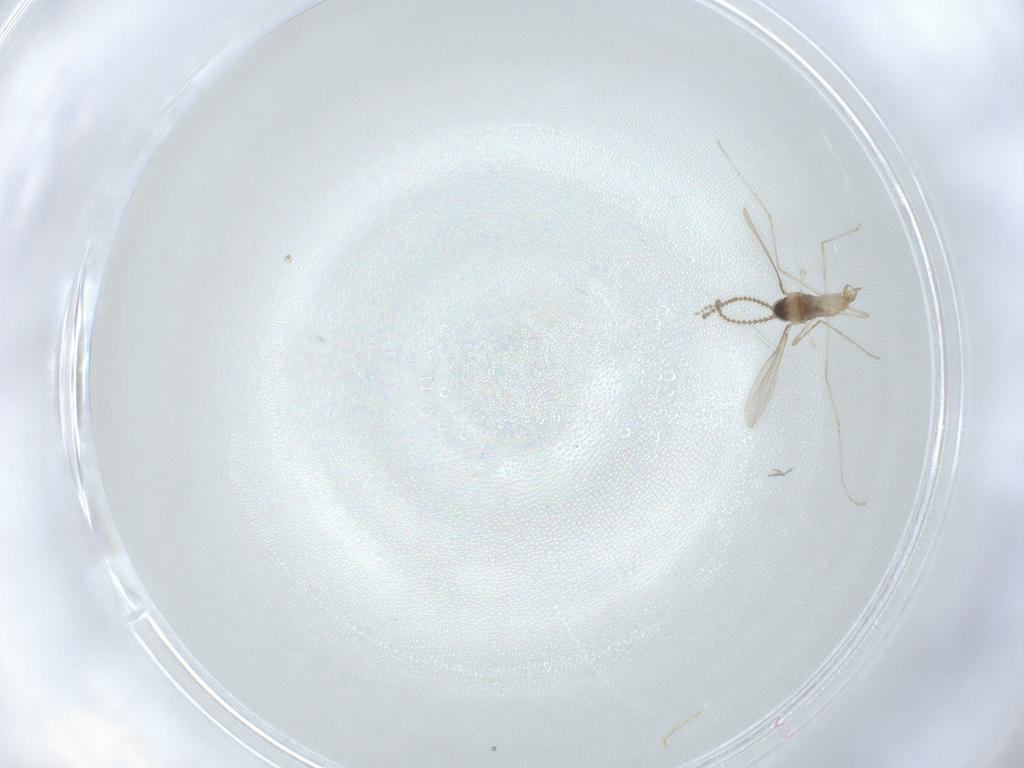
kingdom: Animalia
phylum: Arthropoda
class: Insecta
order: Diptera
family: Cecidomyiidae
